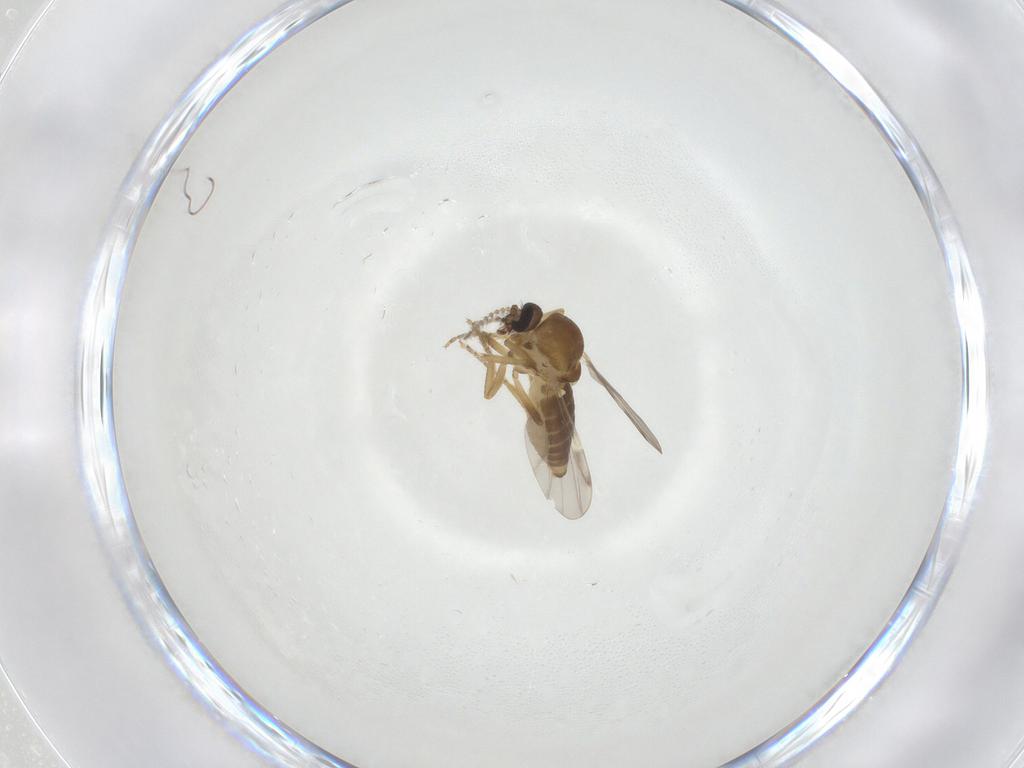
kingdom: Animalia
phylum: Arthropoda
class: Insecta
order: Diptera
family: Ceratopogonidae
